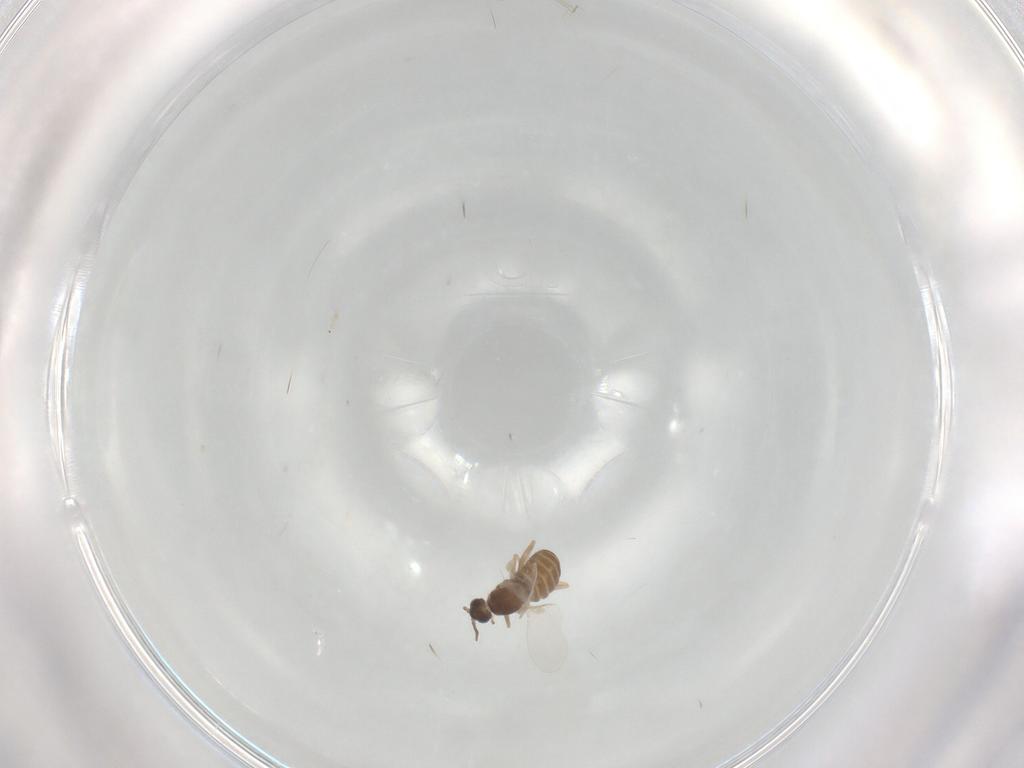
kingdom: Animalia
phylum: Arthropoda
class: Insecta
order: Diptera
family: Cecidomyiidae
